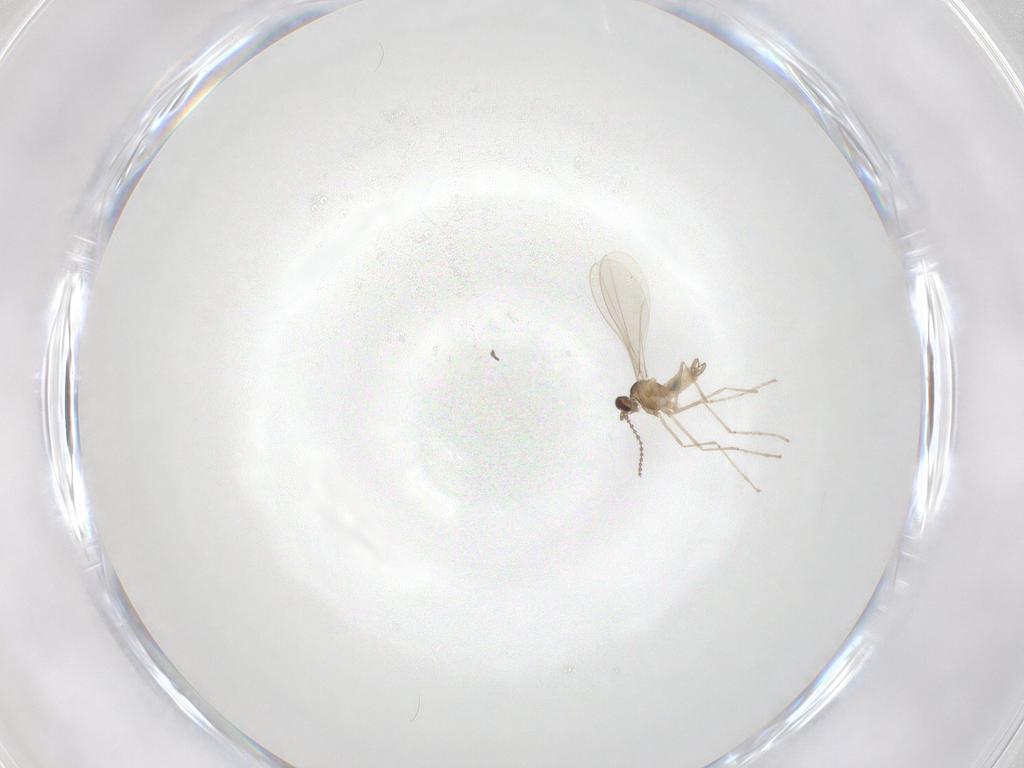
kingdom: Animalia
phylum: Arthropoda
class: Insecta
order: Diptera
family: Cecidomyiidae
